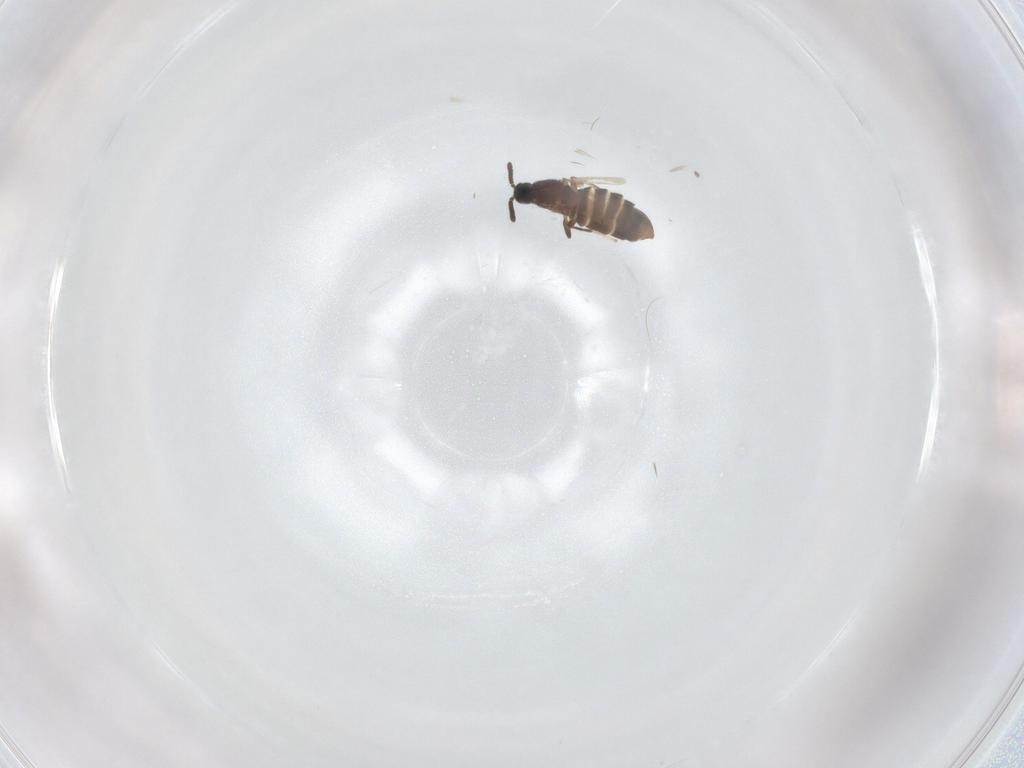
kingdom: Animalia
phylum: Arthropoda
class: Insecta
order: Diptera
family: Scatopsidae
